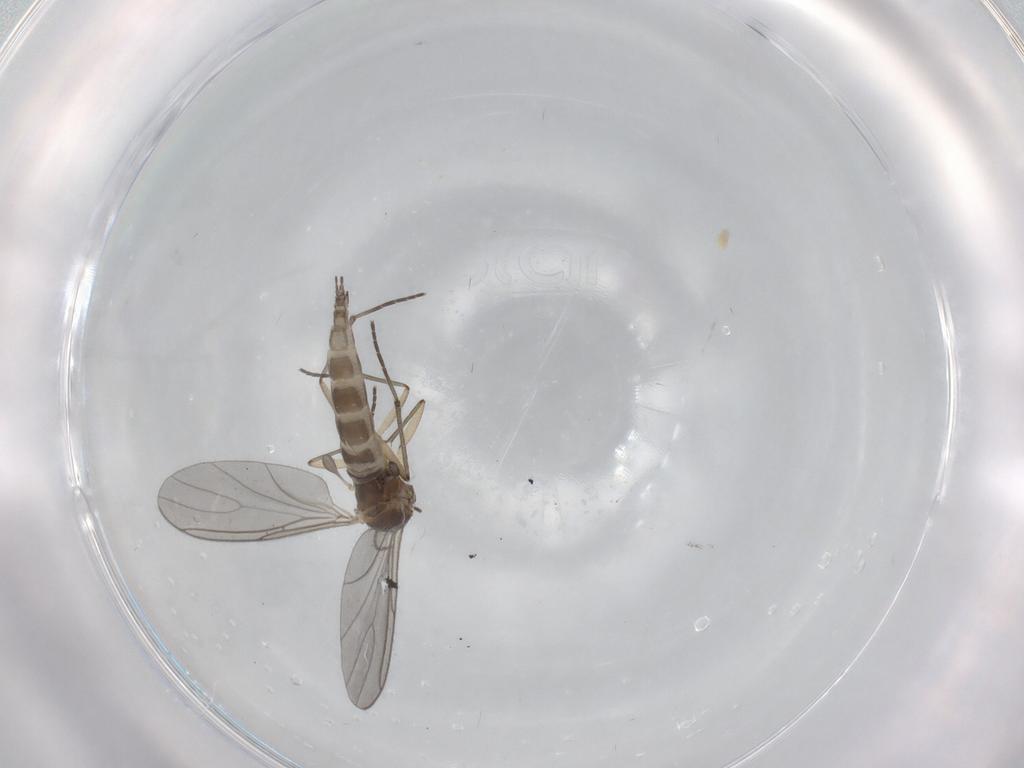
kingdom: Animalia
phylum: Arthropoda
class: Insecta
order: Diptera
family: Sciaridae
